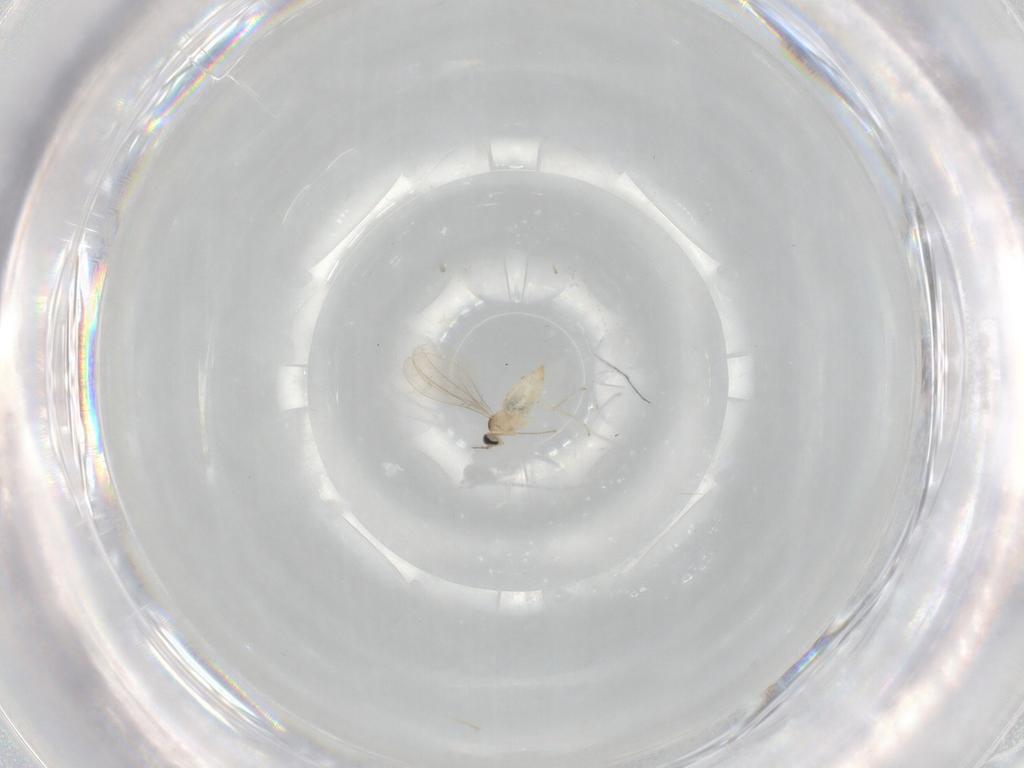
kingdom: Animalia
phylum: Arthropoda
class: Insecta
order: Diptera
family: Cecidomyiidae
